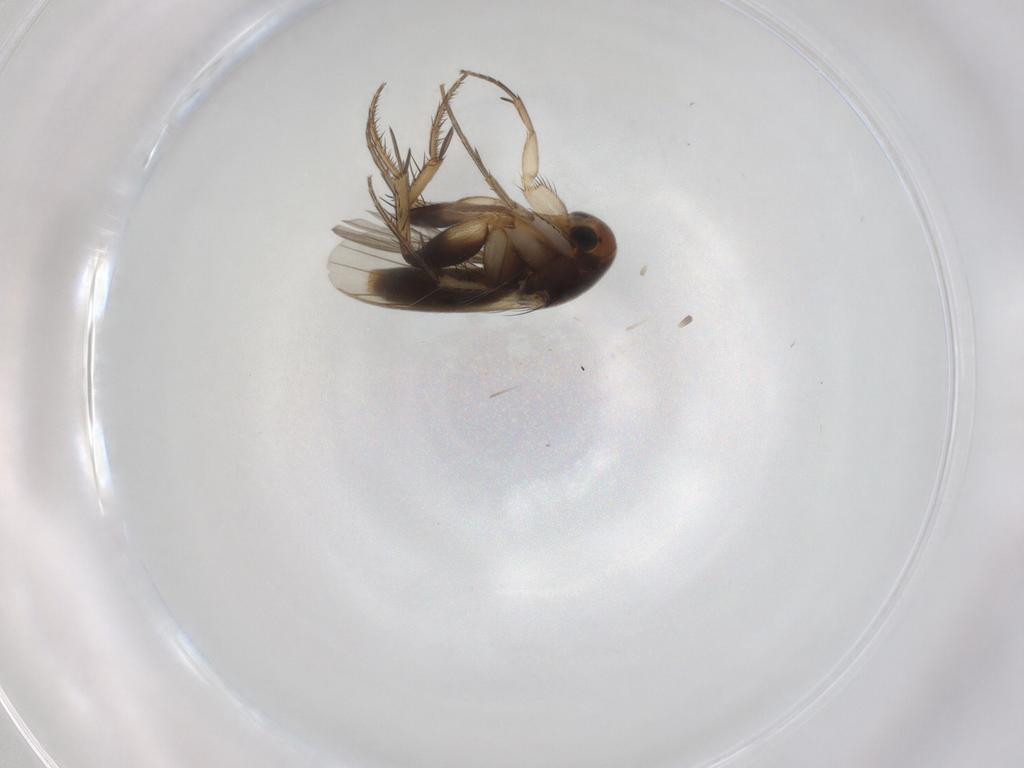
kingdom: Animalia
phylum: Arthropoda
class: Insecta
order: Diptera
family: Mycetophilidae
